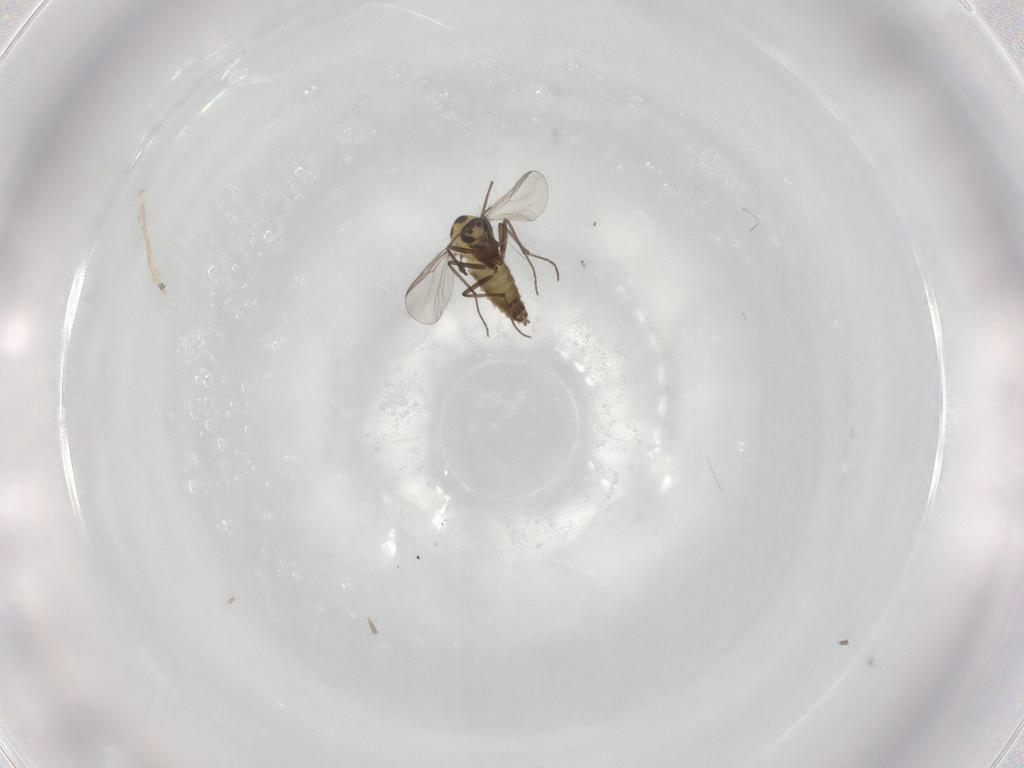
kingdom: Animalia
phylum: Arthropoda
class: Insecta
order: Diptera
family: Chironomidae
